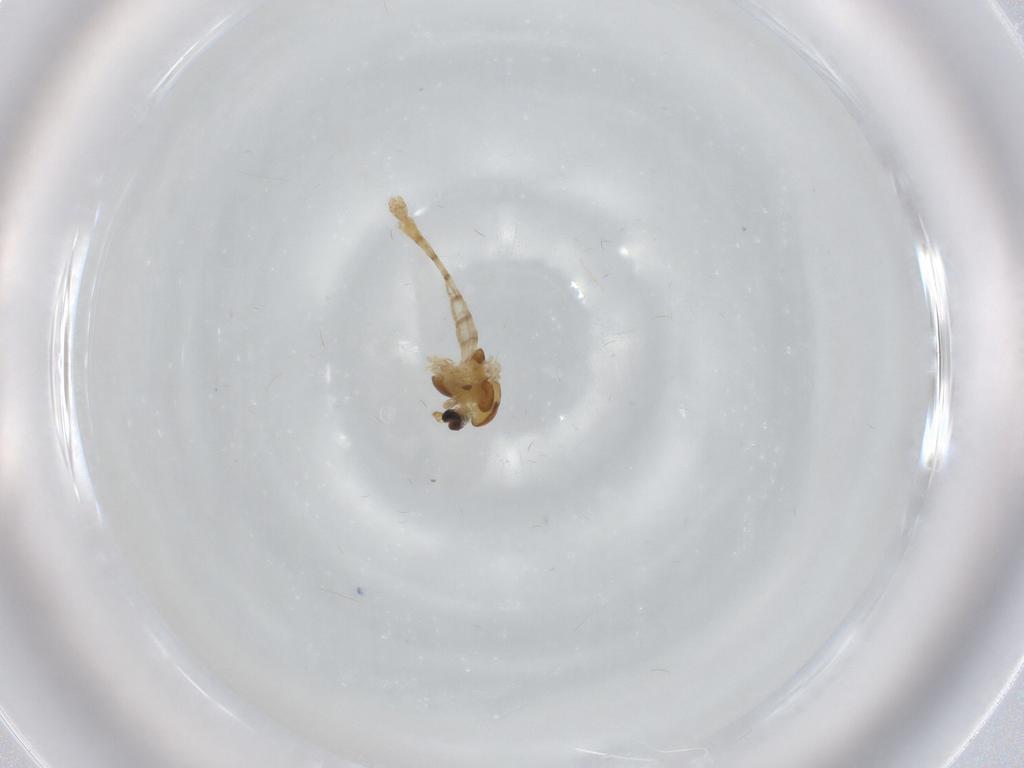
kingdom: Animalia
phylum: Arthropoda
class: Insecta
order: Diptera
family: Chironomidae
